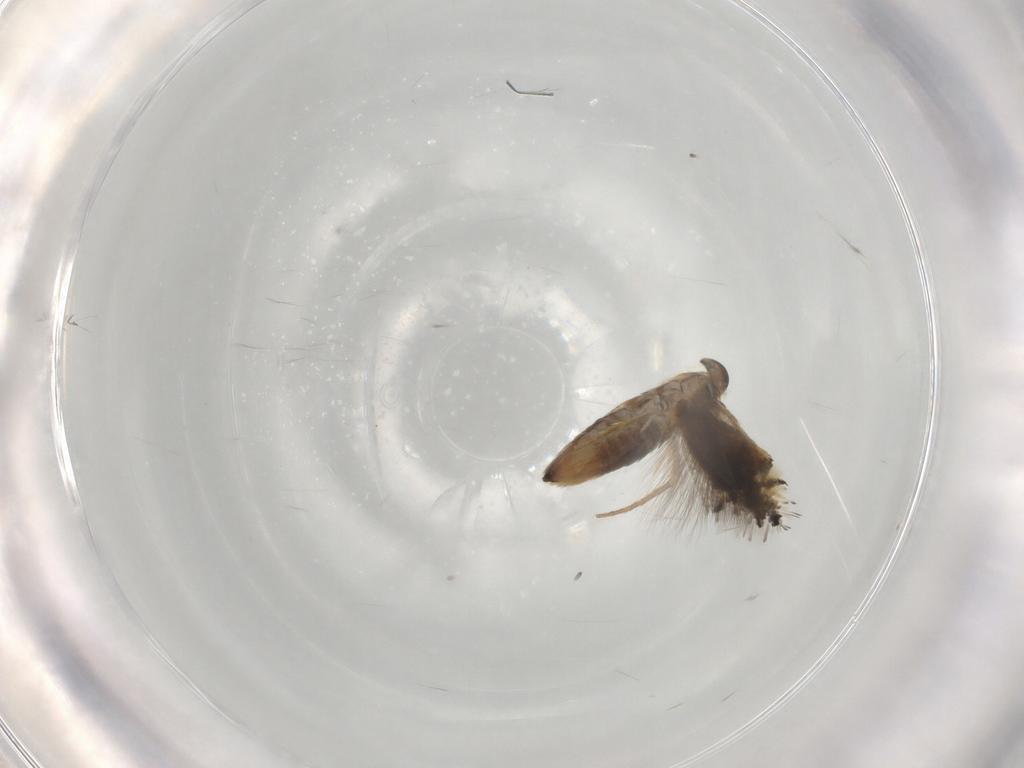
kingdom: Animalia
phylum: Arthropoda
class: Insecta
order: Lepidoptera
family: Heliozelidae
